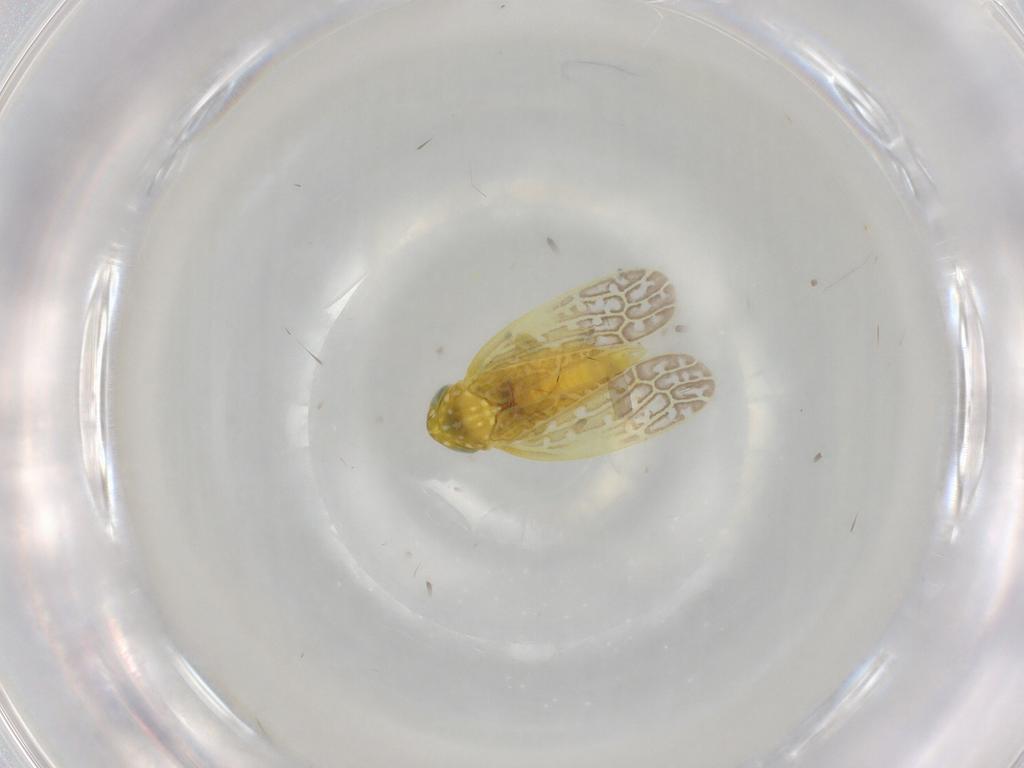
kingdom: Animalia
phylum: Arthropoda
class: Insecta
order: Hemiptera
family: Cicadellidae
